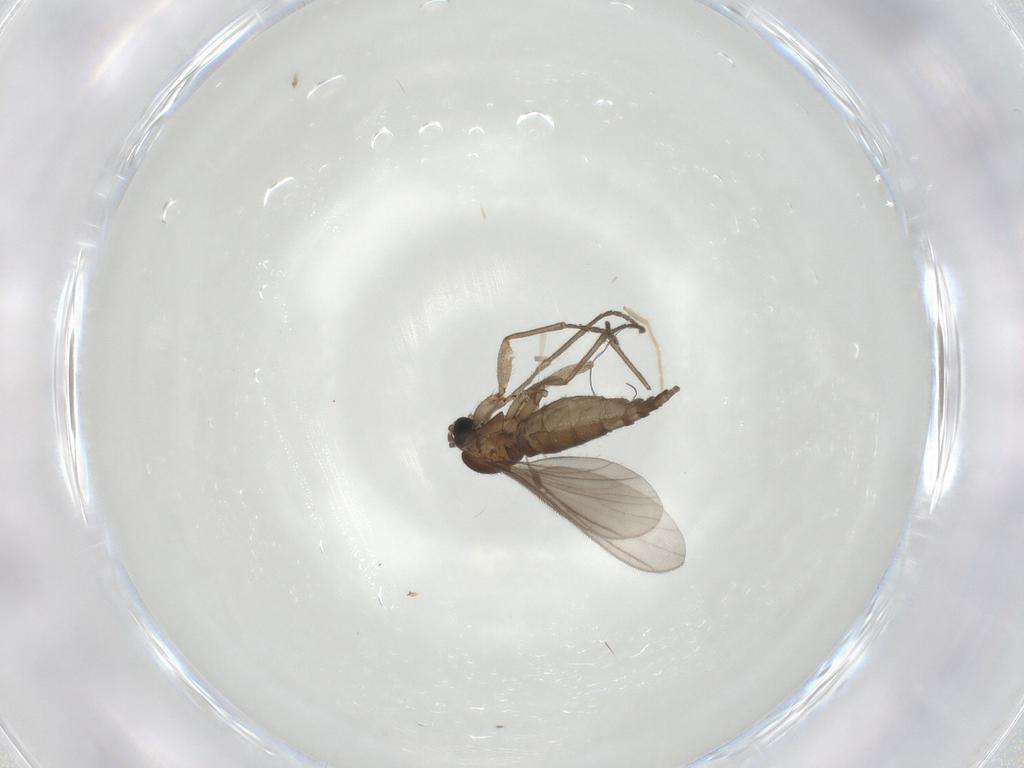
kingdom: Animalia
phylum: Arthropoda
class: Insecta
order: Diptera
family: Sciaridae
